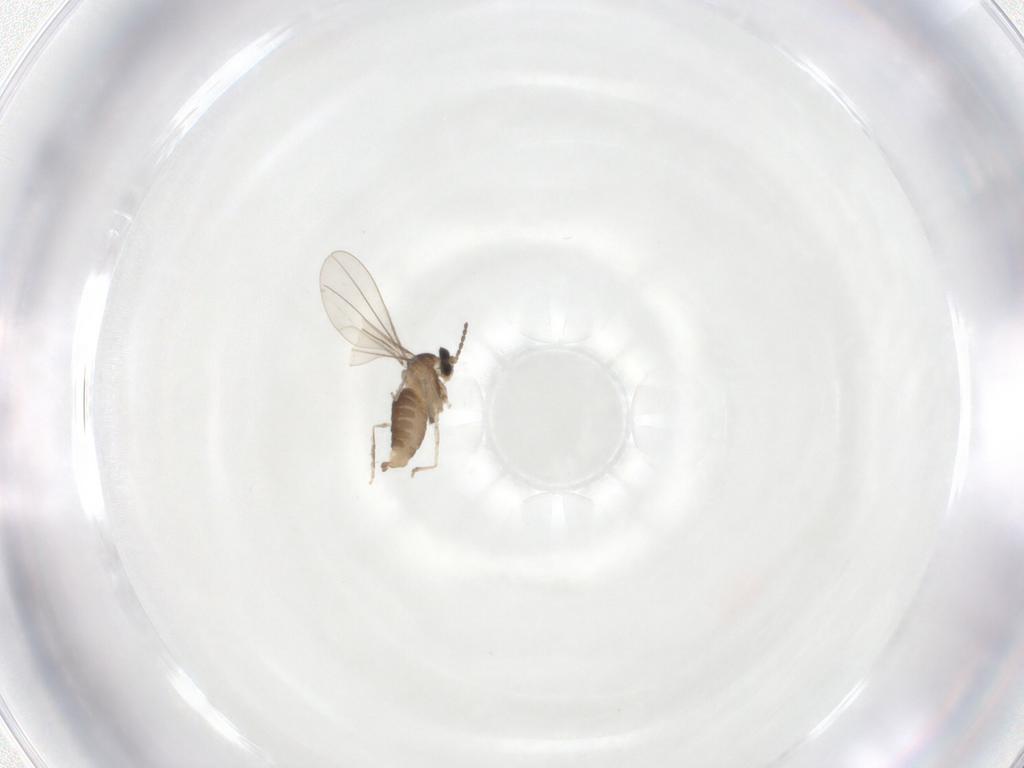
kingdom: Animalia
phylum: Arthropoda
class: Insecta
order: Diptera
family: Cecidomyiidae
